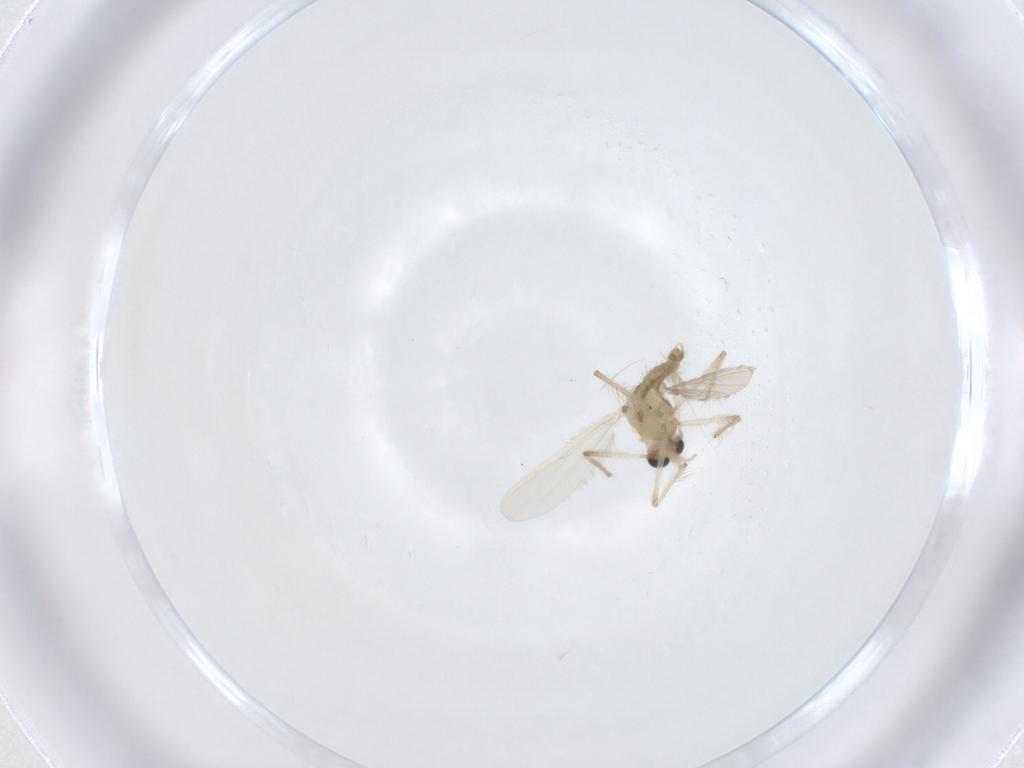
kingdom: Animalia
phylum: Arthropoda
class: Insecta
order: Diptera
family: Chironomidae
